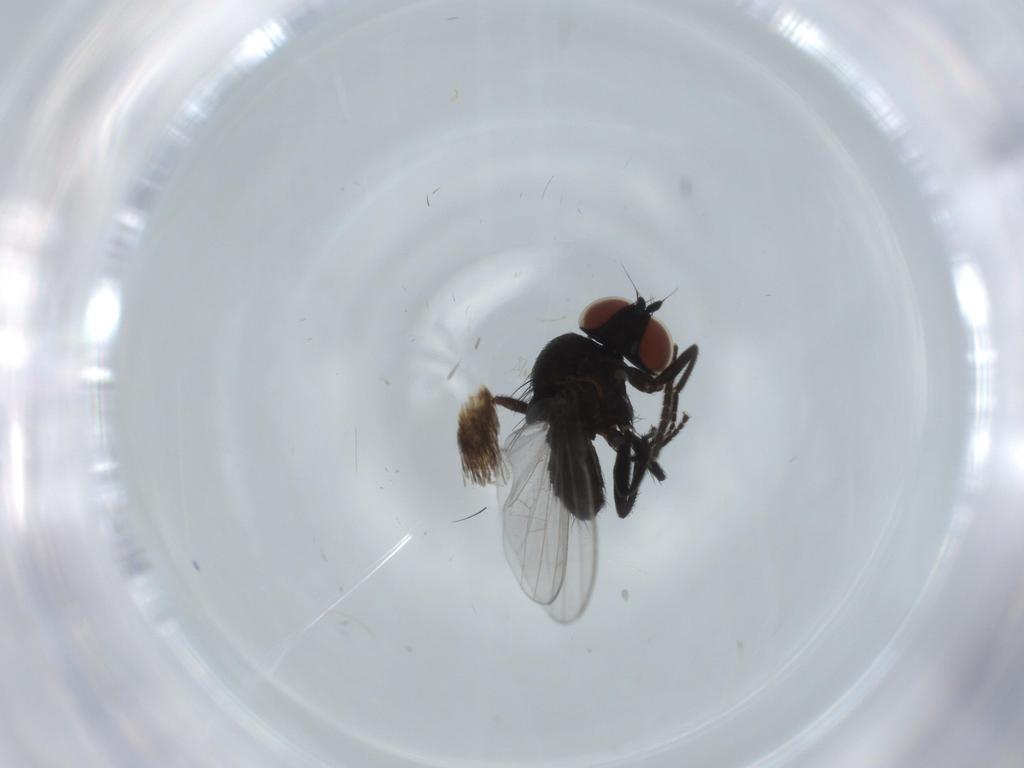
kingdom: Animalia
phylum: Arthropoda
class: Insecta
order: Diptera
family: Sciaridae
